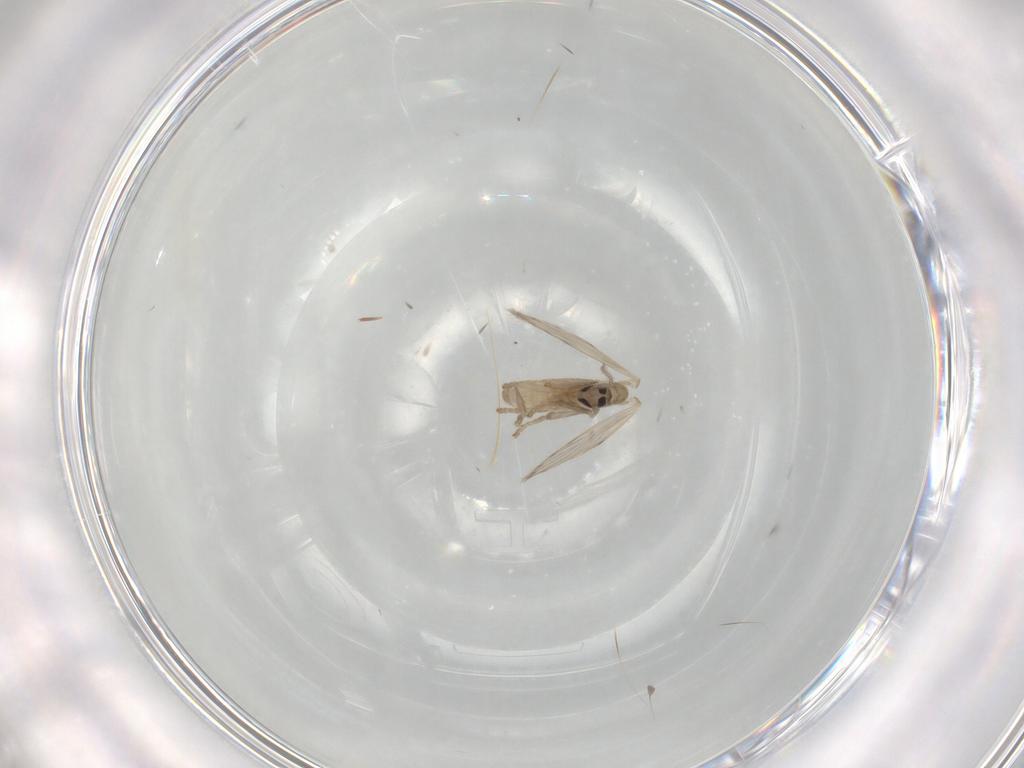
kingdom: Animalia
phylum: Arthropoda
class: Insecta
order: Diptera
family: Psychodidae
